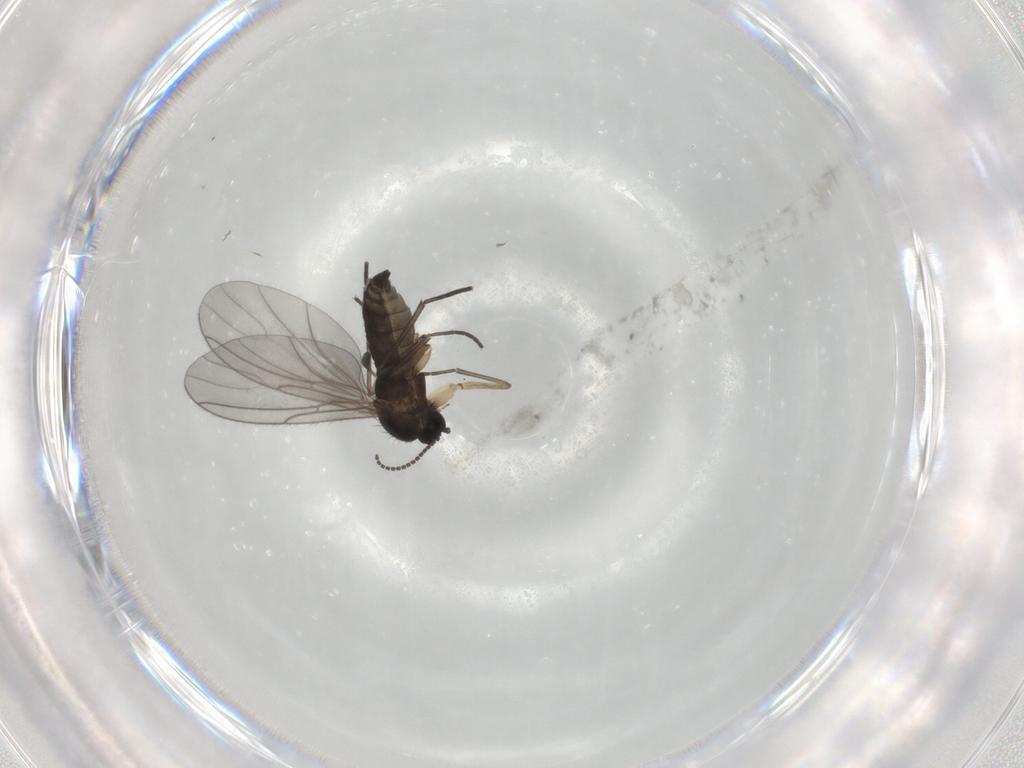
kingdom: Animalia
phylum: Arthropoda
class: Insecta
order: Diptera
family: Sciaridae
